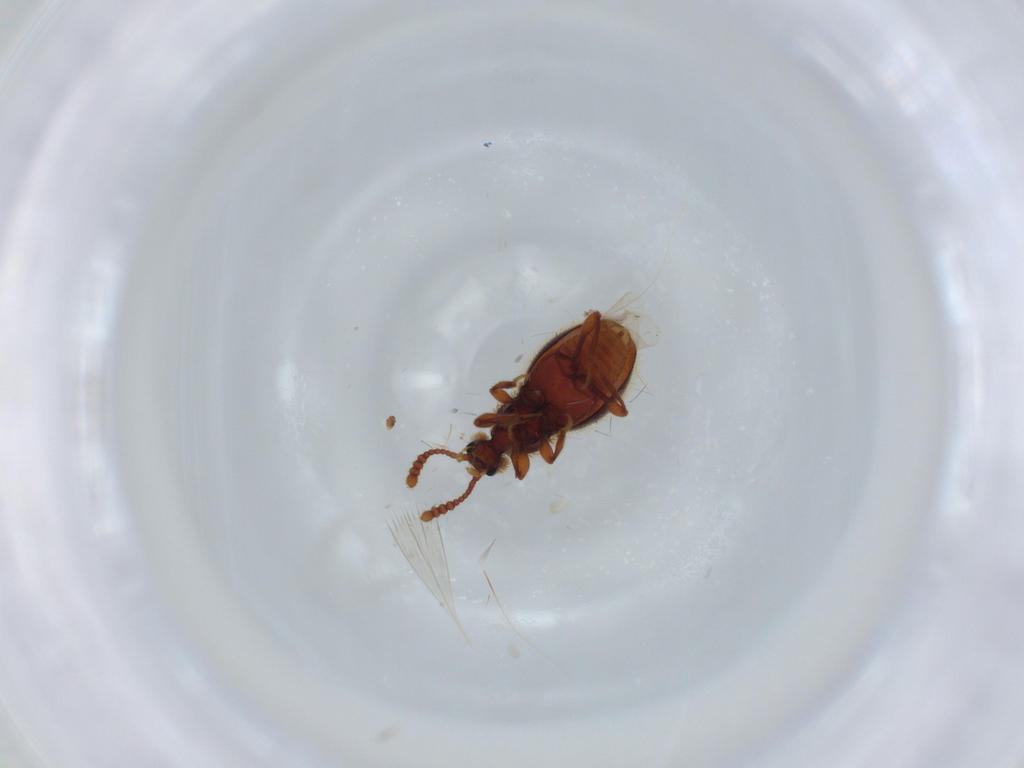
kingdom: Animalia
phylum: Arthropoda
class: Insecta
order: Coleoptera
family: Staphylinidae
